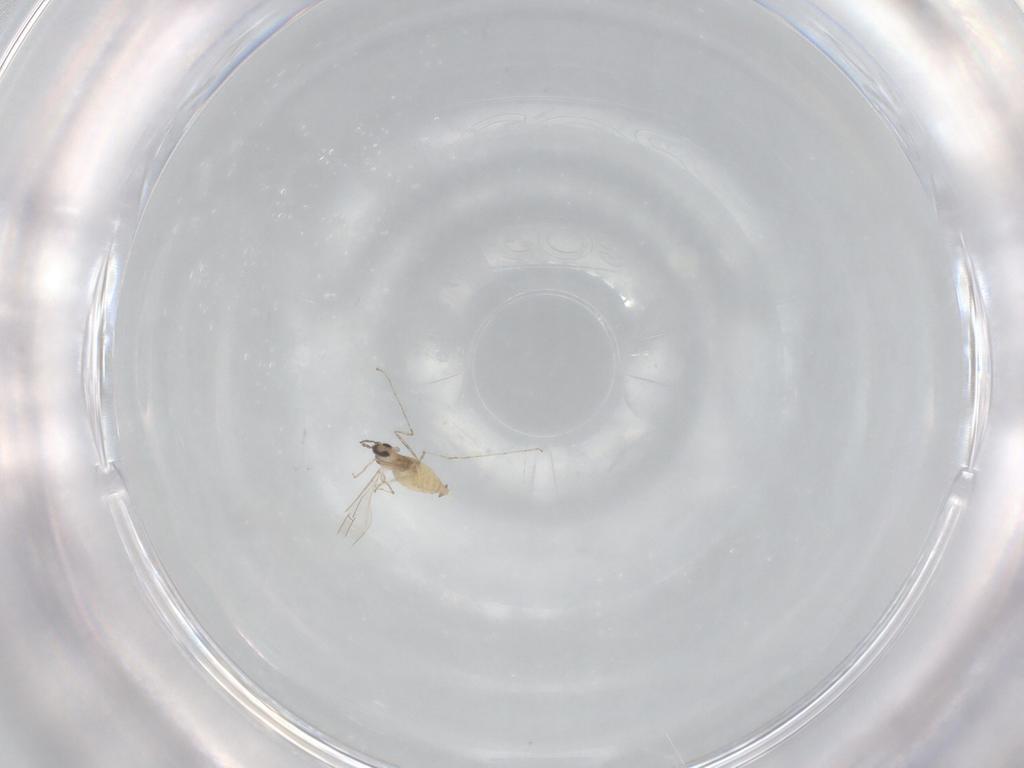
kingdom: Animalia
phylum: Arthropoda
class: Insecta
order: Diptera
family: Cecidomyiidae
